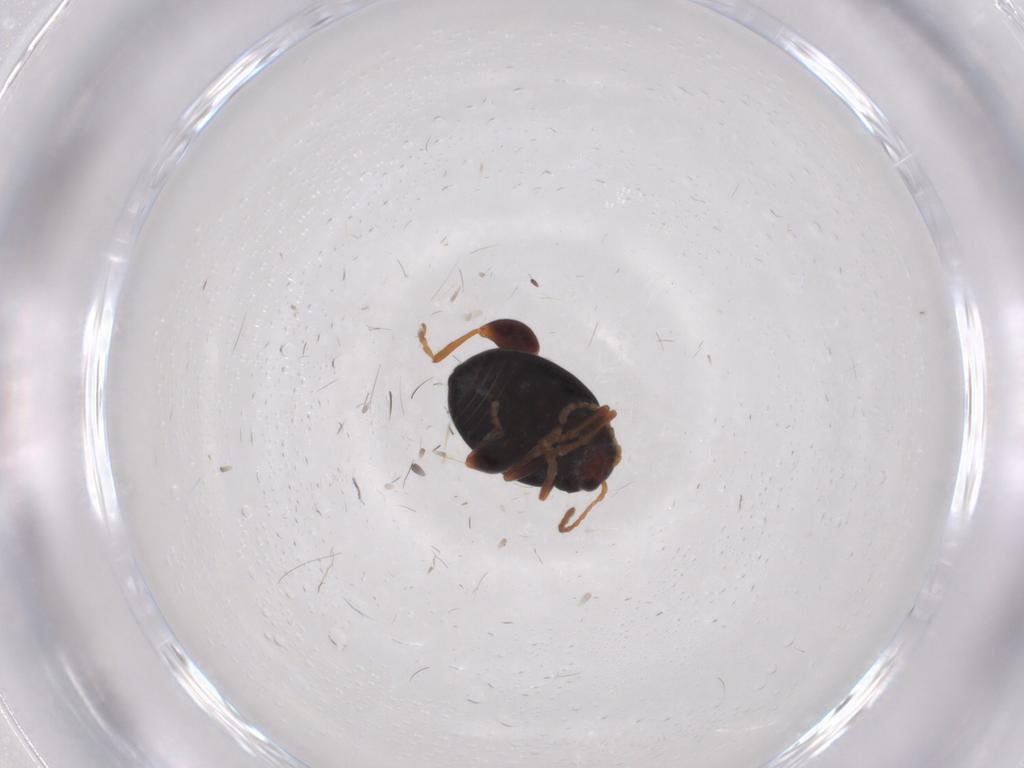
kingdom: Animalia
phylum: Arthropoda
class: Insecta
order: Coleoptera
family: Chrysomelidae
